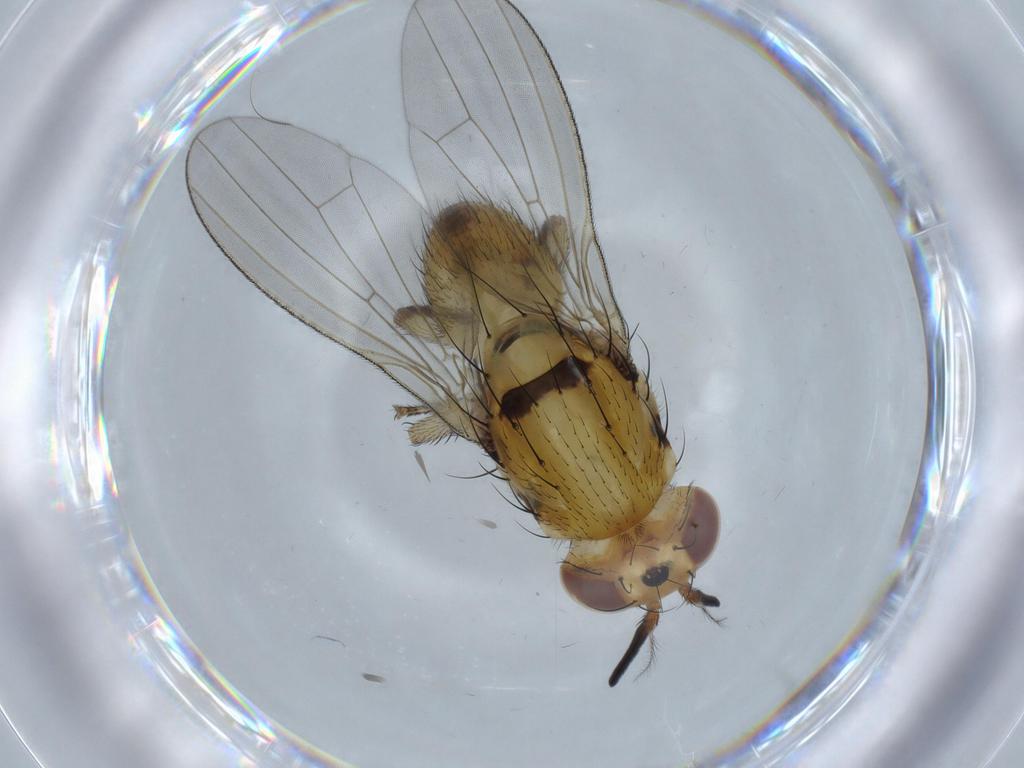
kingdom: Animalia
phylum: Arthropoda
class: Insecta
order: Diptera
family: Lauxaniidae
